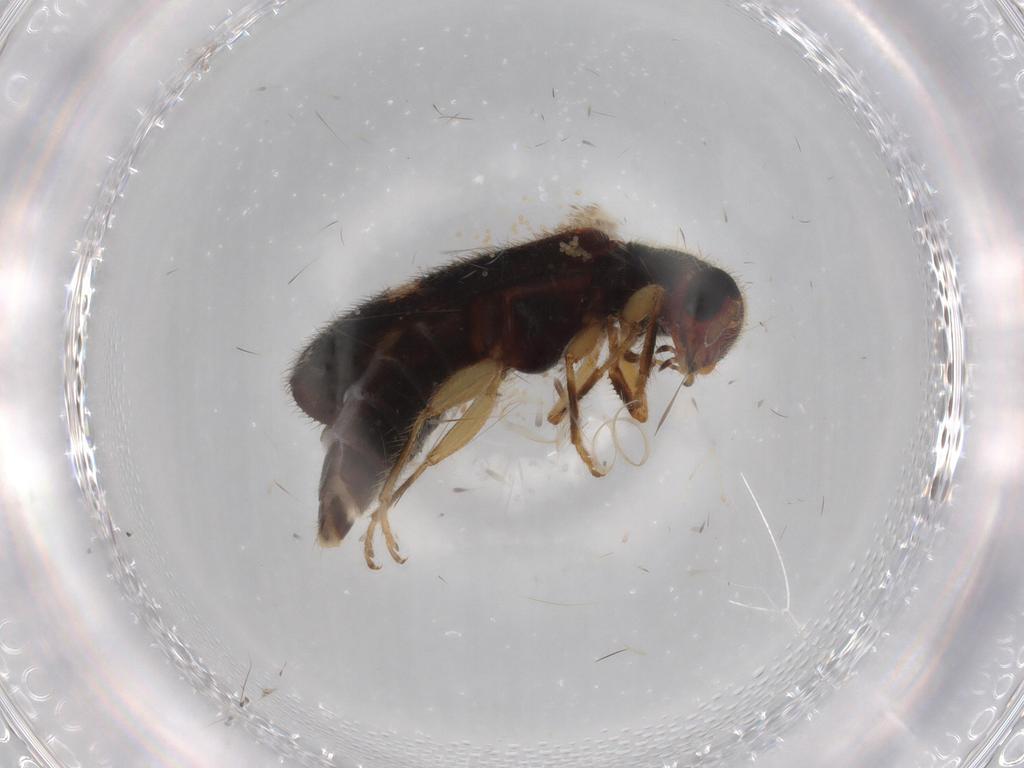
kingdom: Animalia
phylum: Arthropoda
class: Insecta
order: Coleoptera
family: Cleridae
